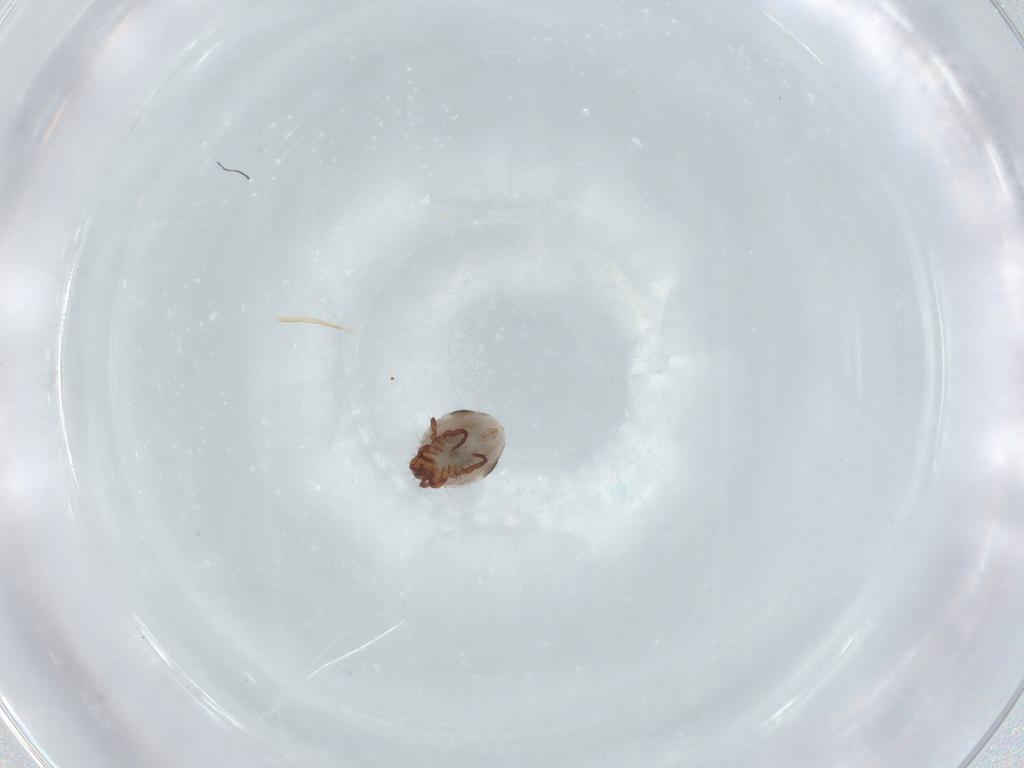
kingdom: Animalia
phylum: Arthropoda
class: Arachnida
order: Sarcoptiformes
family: Ceratozetidae
